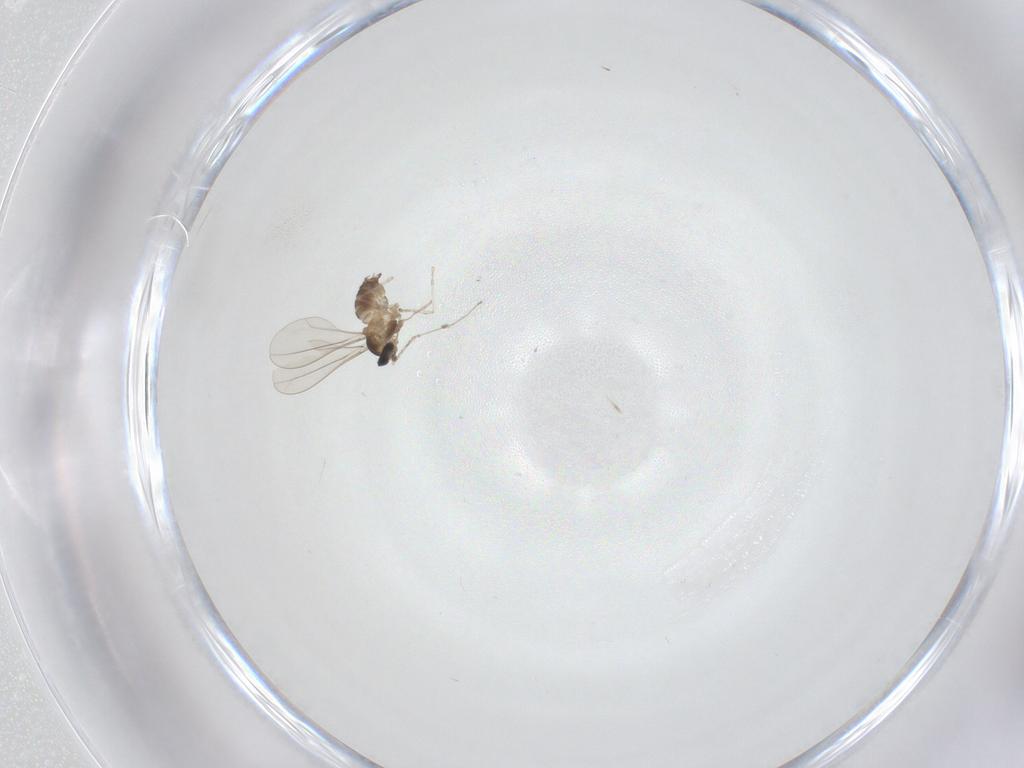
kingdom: Animalia
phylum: Arthropoda
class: Insecta
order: Diptera
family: Cecidomyiidae
